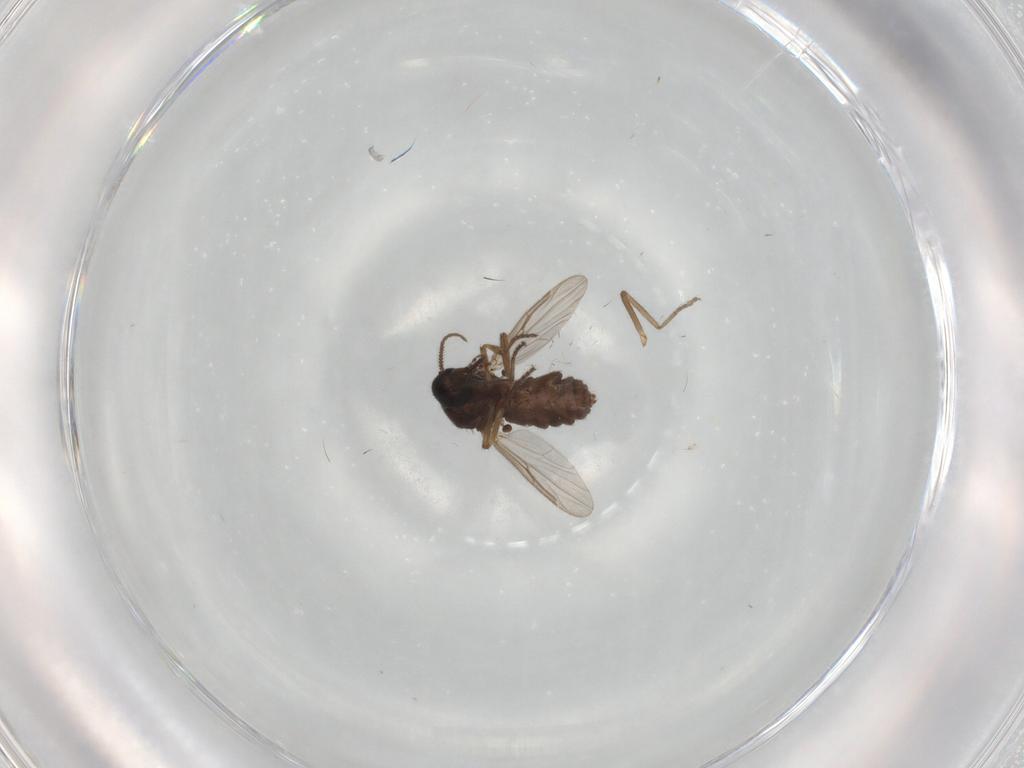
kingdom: Animalia
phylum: Arthropoda
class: Insecta
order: Diptera
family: Ceratopogonidae
